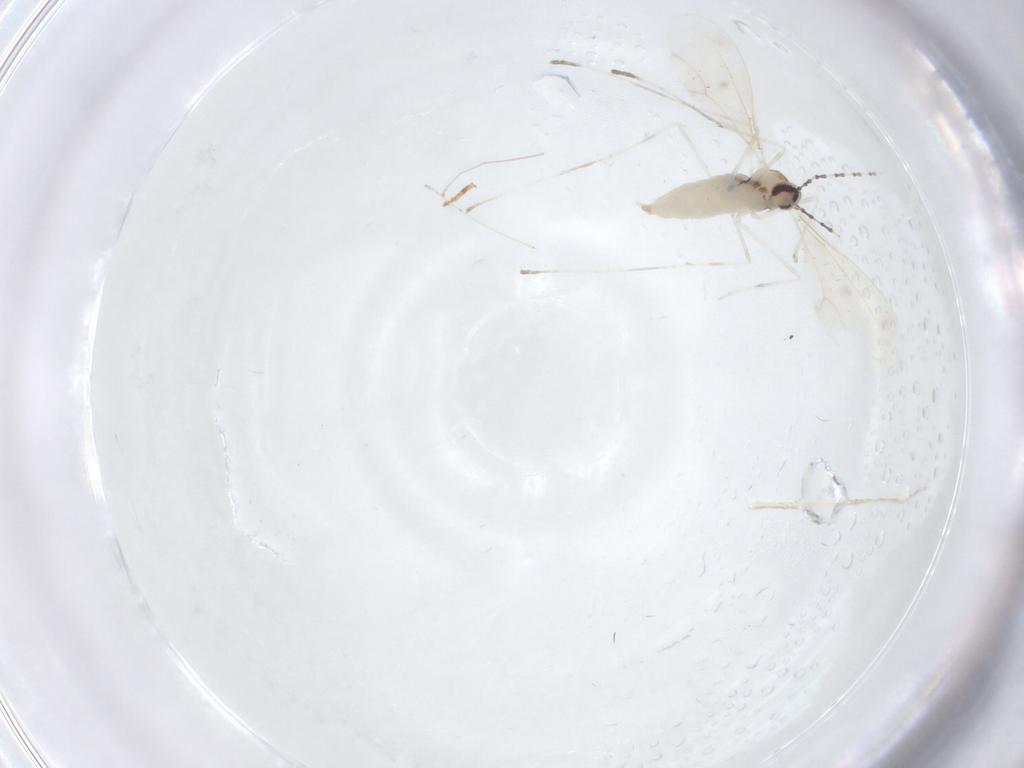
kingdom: Animalia
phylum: Arthropoda
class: Insecta
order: Diptera
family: Cecidomyiidae
